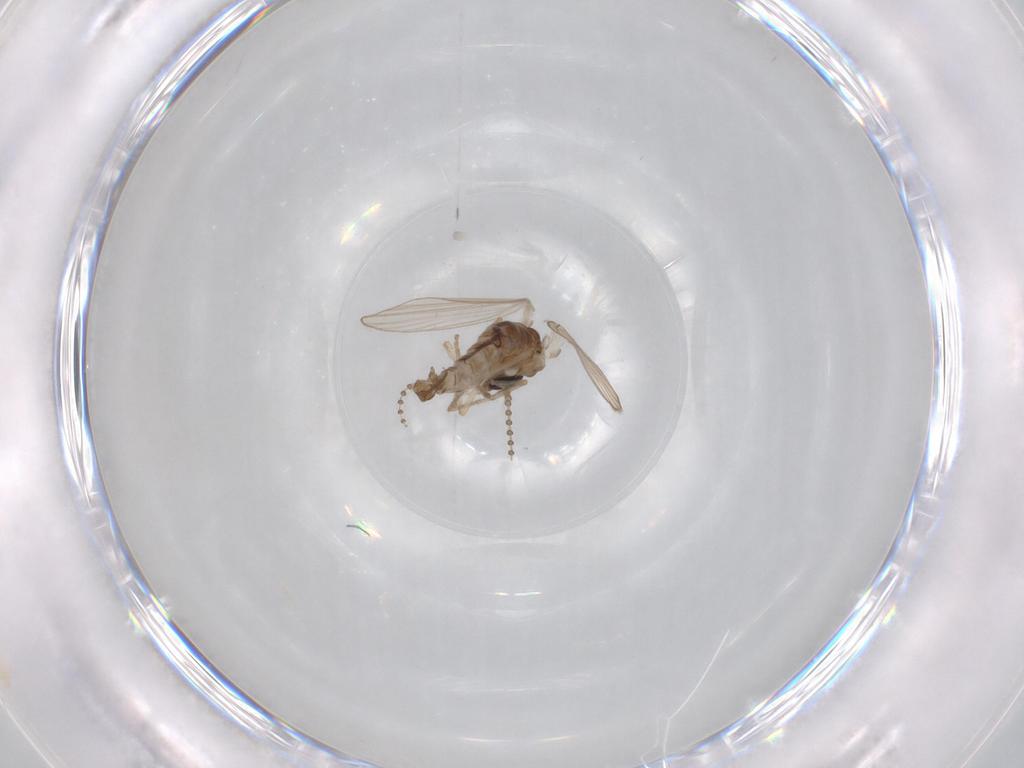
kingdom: Animalia
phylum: Arthropoda
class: Insecta
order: Diptera
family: Psychodidae
